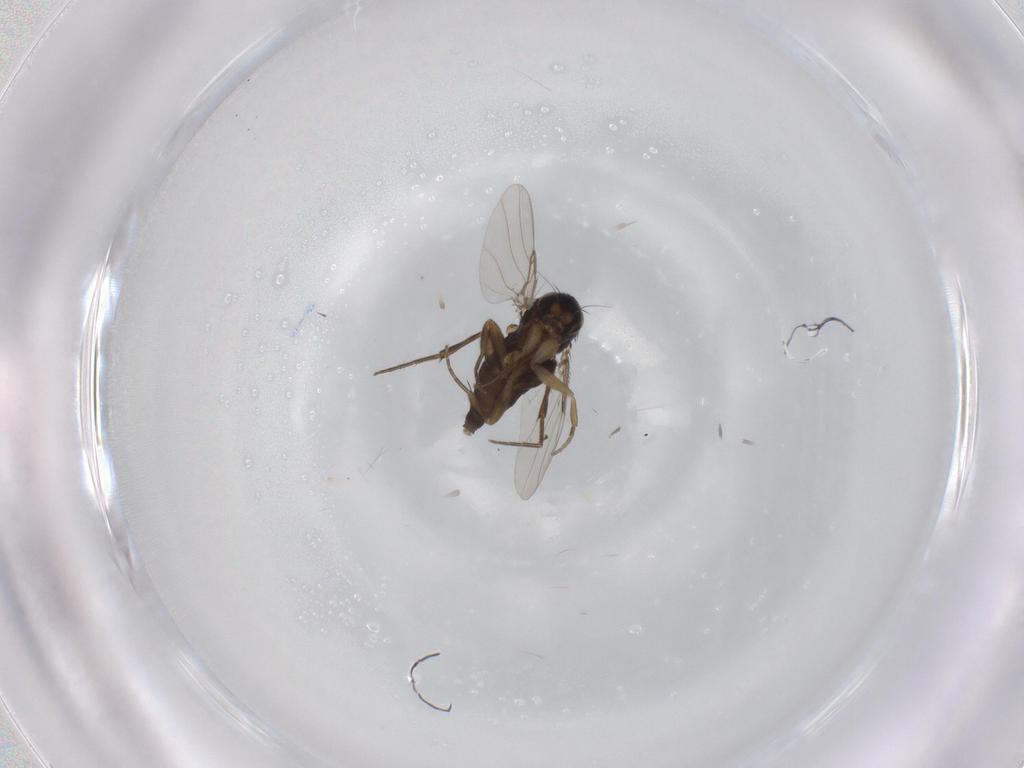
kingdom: Animalia
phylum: Arthropoda
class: Insecta
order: Diptera
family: Phoridae
